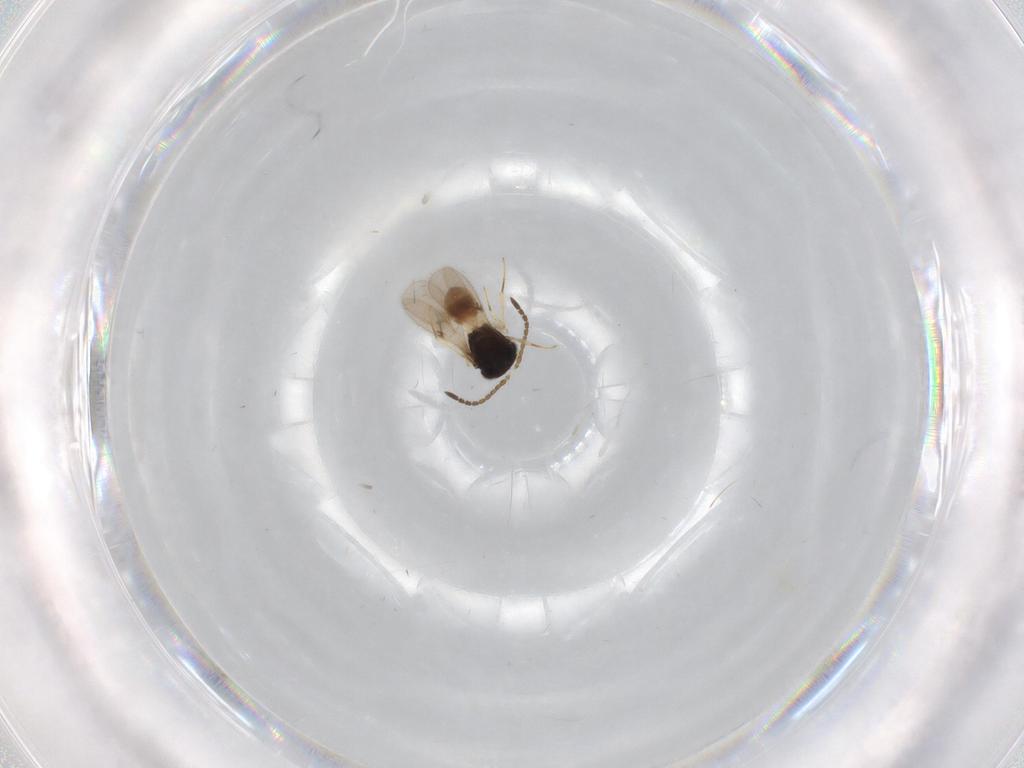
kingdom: Animalia
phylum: Arthropoda
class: Insecta
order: Hymenoptera
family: Scelionidae
